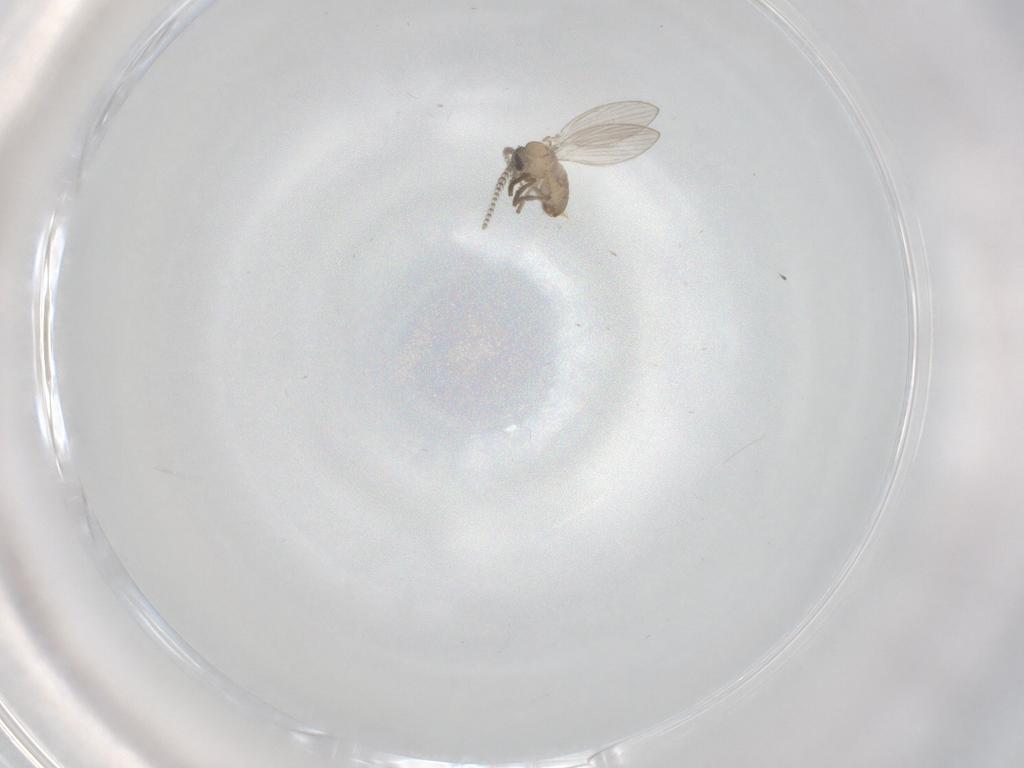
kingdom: Animalia
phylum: Arthropoda
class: Insecta
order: Diptera
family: Psychodidae
